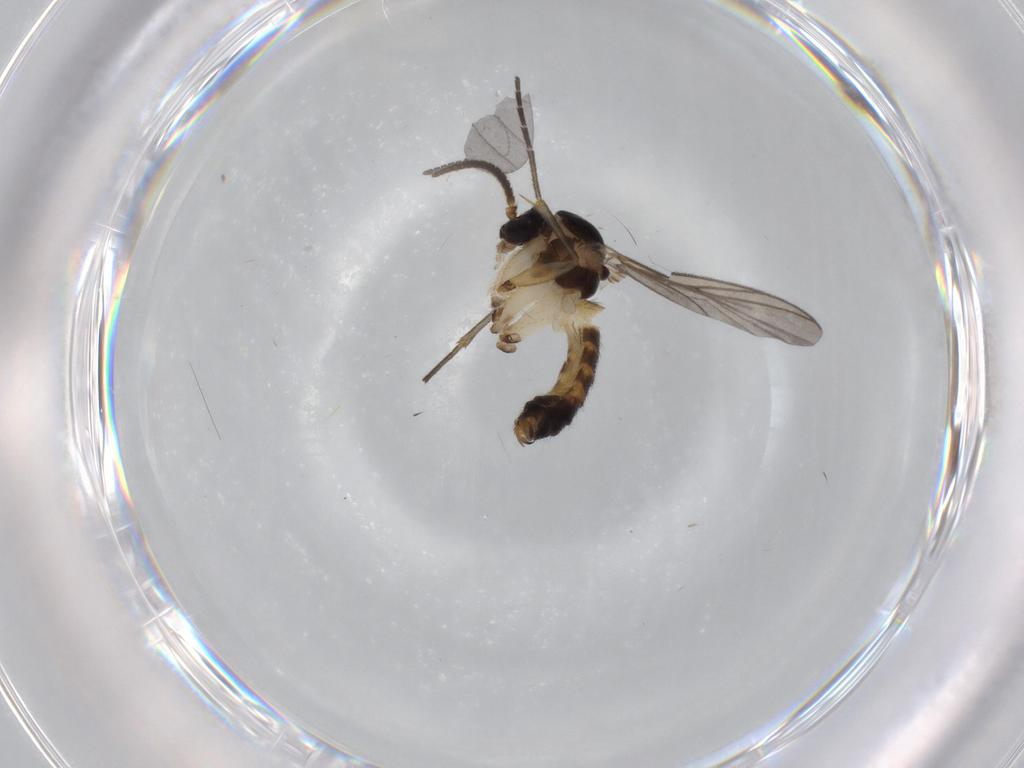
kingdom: Animalia
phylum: Arthropoda
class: Insecta
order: Diptera
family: Mycetophilidae
